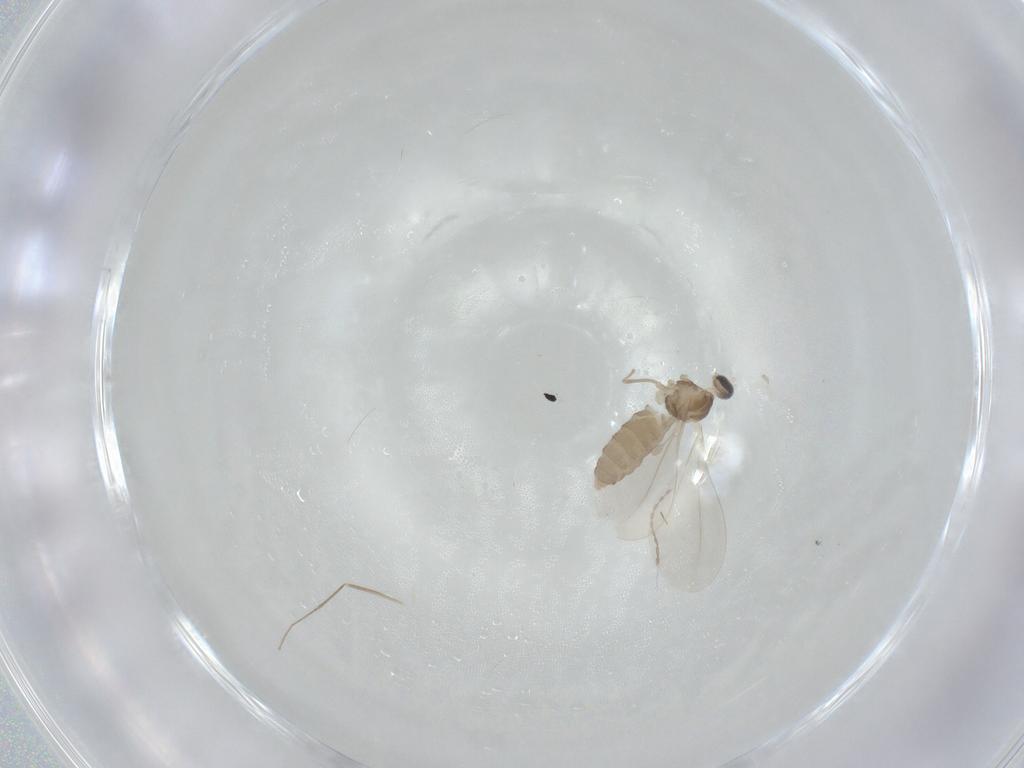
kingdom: Animalia
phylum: Arthropoda
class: Insecta
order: Diptera
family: Cecidomyiidae
